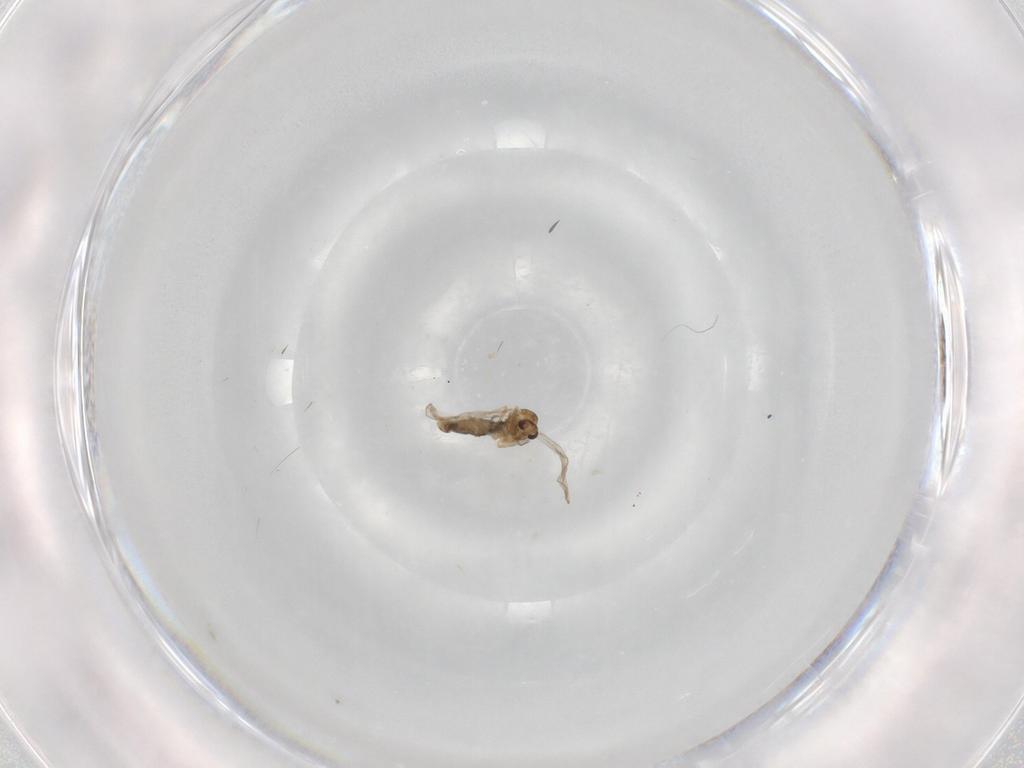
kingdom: Animalia
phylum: Arthropoda
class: Insecta
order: Diptera
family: Chironomidae
